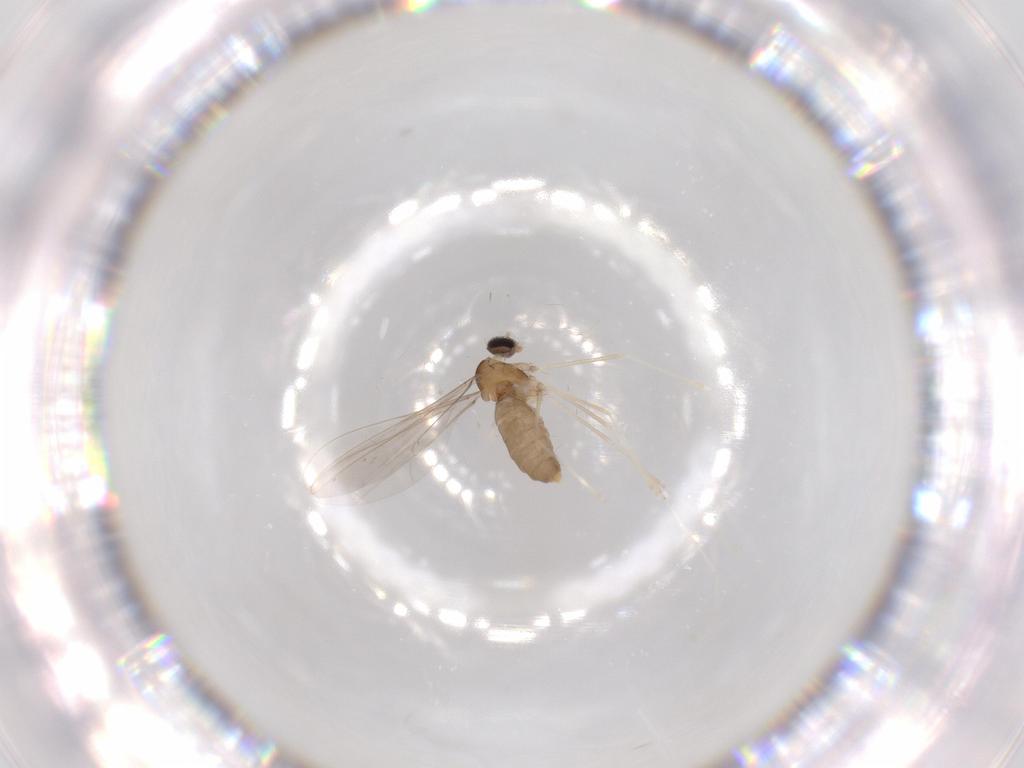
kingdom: Animalia
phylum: Arthropoda
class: Insecta
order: Diptera
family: Cecidomyiidae
